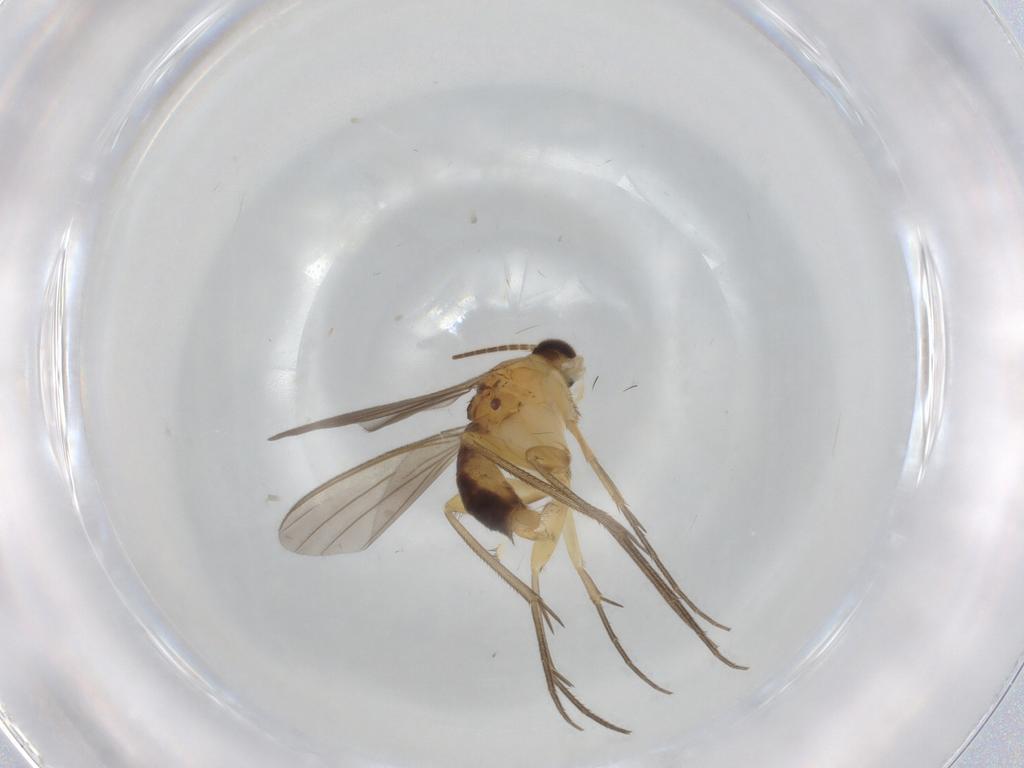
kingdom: Animalia
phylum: Arthropoda
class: Insecta
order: Diptera
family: Mycetophilidae
